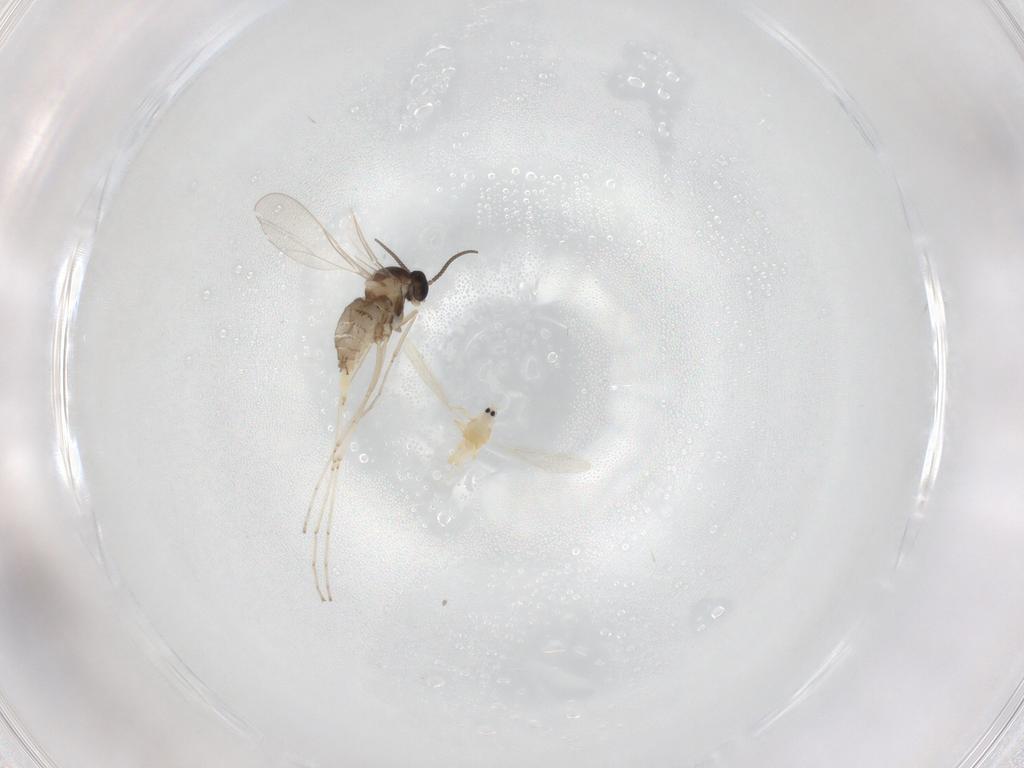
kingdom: Animalia
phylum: Arthropoda
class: Insecta
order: Diptera
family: Cecidomyiidae
